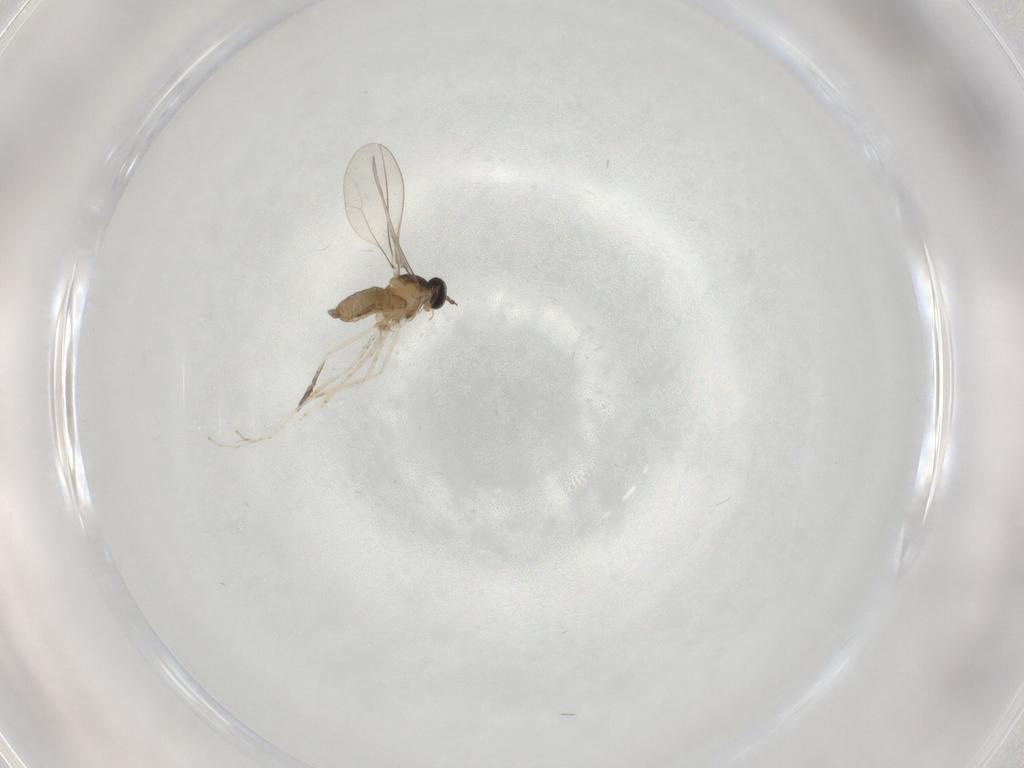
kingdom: Animalia
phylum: Arthropoda
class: Insecta
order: Diptera
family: Cecidomyiidae
